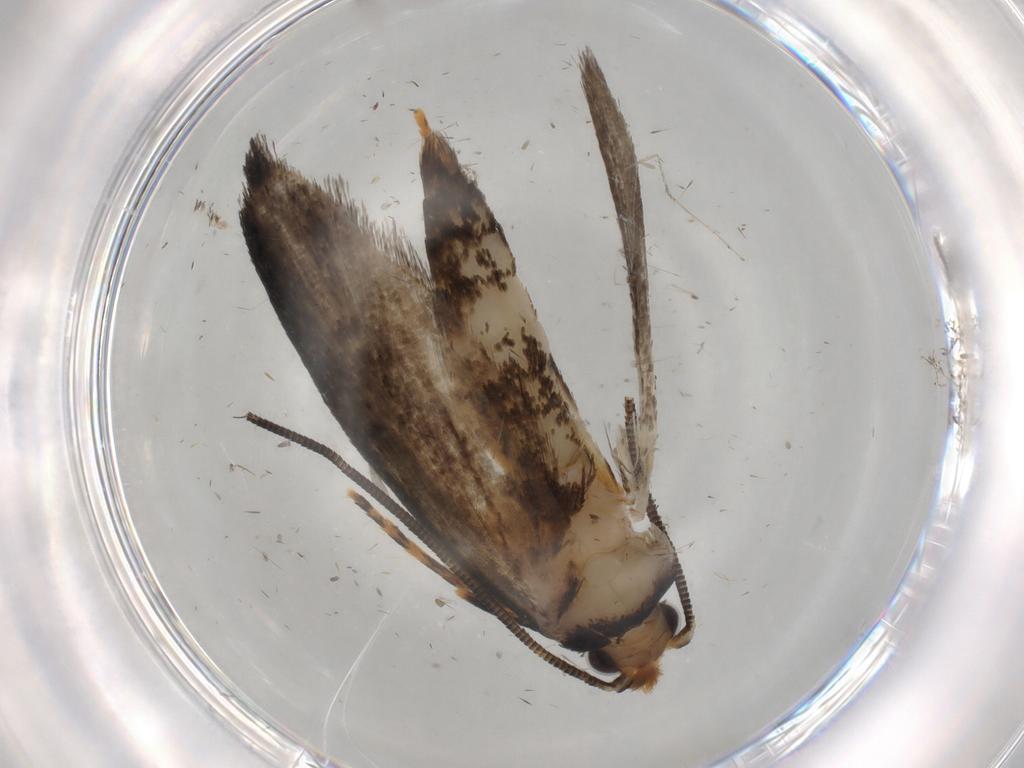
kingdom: Animalia
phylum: Arthropoda
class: Insecta
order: Lepidoptera
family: Tineidae
